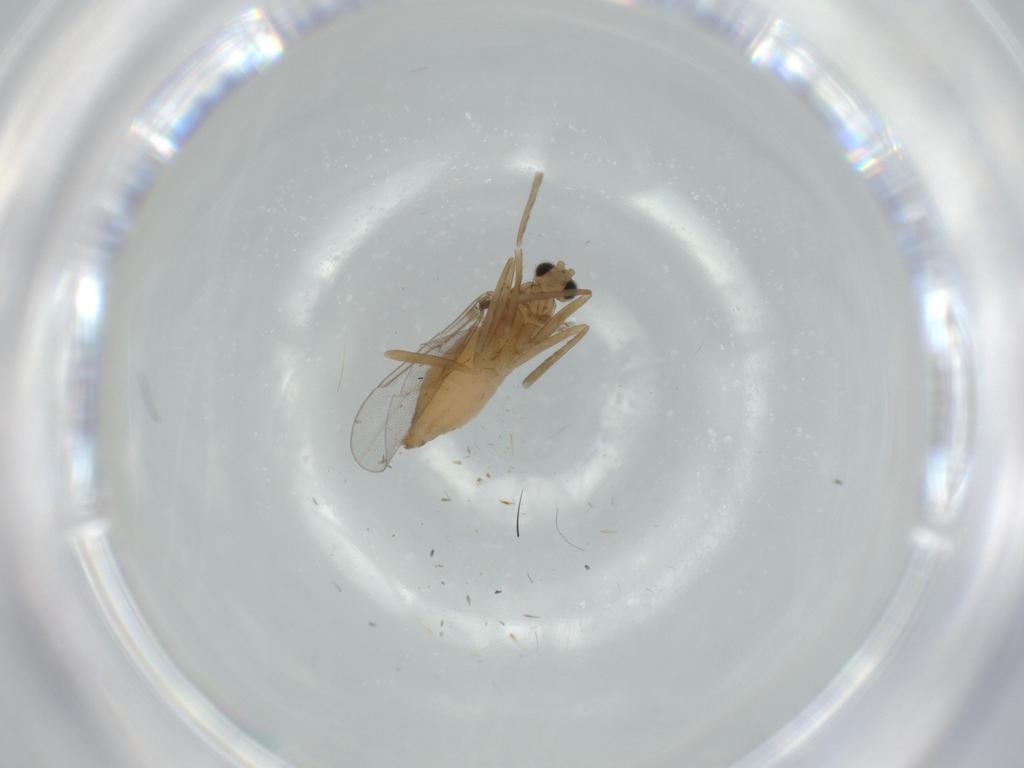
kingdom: Animalia
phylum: Arthropoda
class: Insecta
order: Diptera
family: Cecidomyiidae
